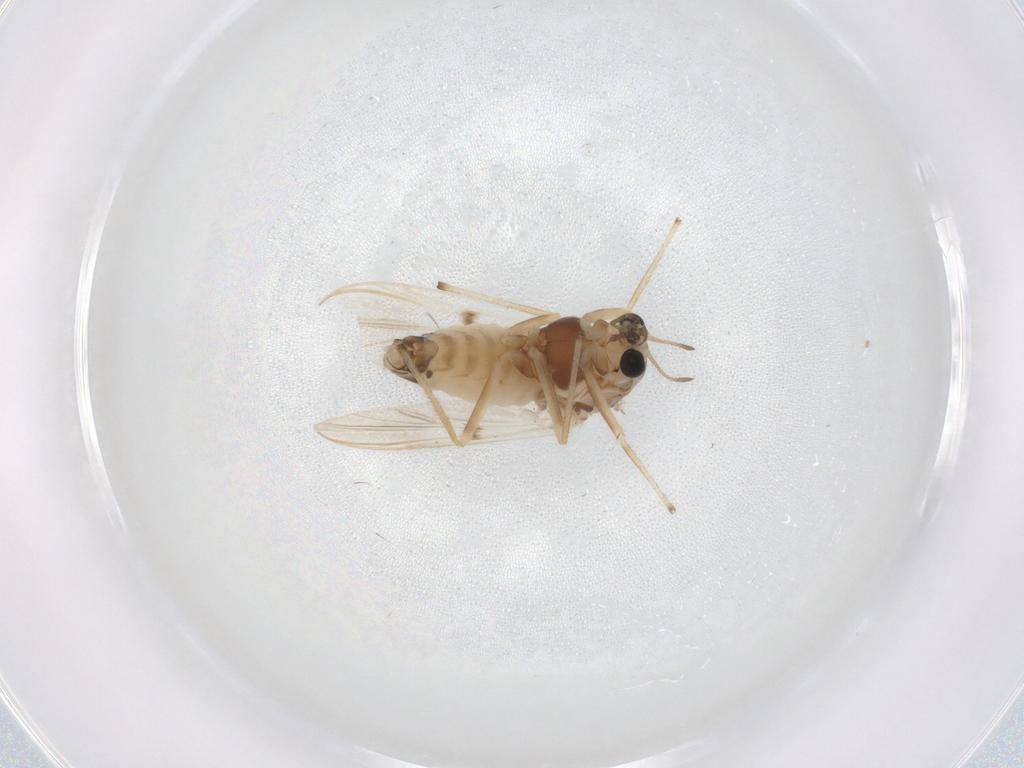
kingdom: Animalia
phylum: Arthropoda
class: Insecta
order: Diptera
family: Chironomidae
